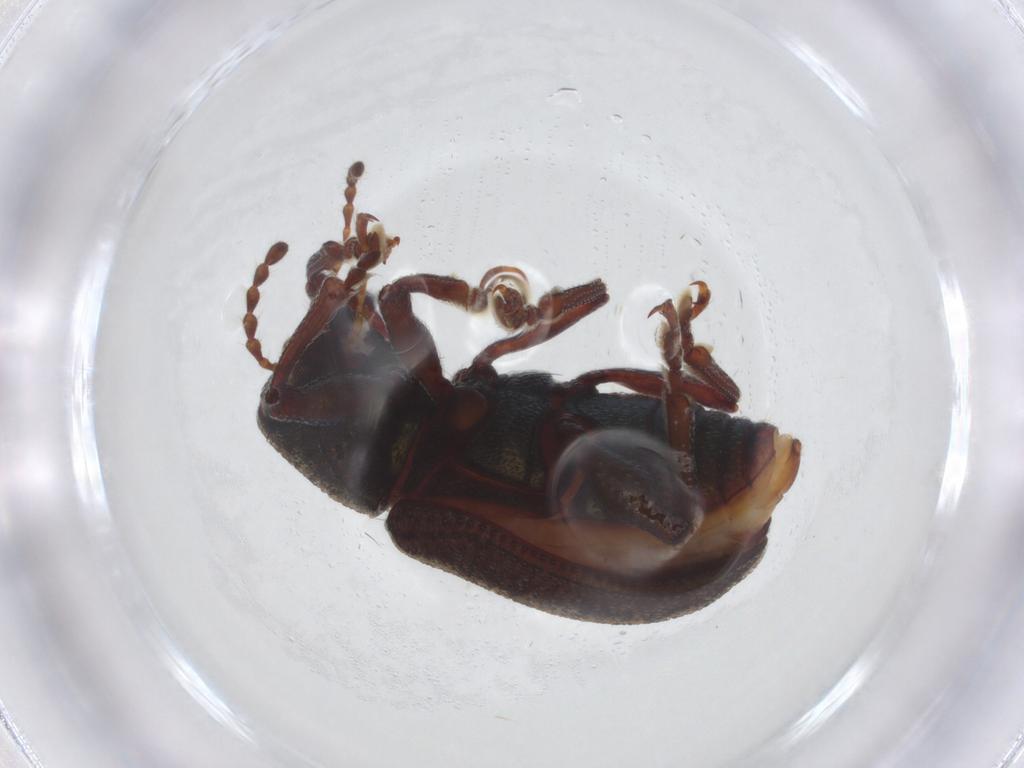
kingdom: Animalia
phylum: Arthropoda
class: Insecta
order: Coleoptera
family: Chrysomelidae
